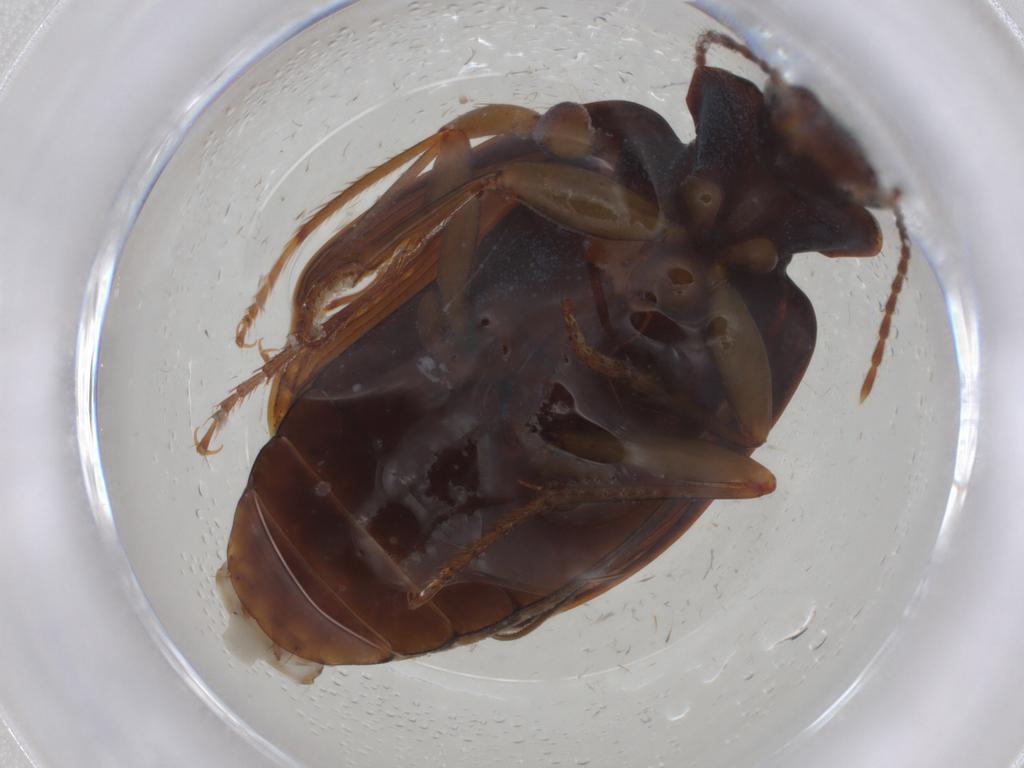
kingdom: Animalia
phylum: Arthropoda
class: Insecta
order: Coleoptera
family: Carabidae
